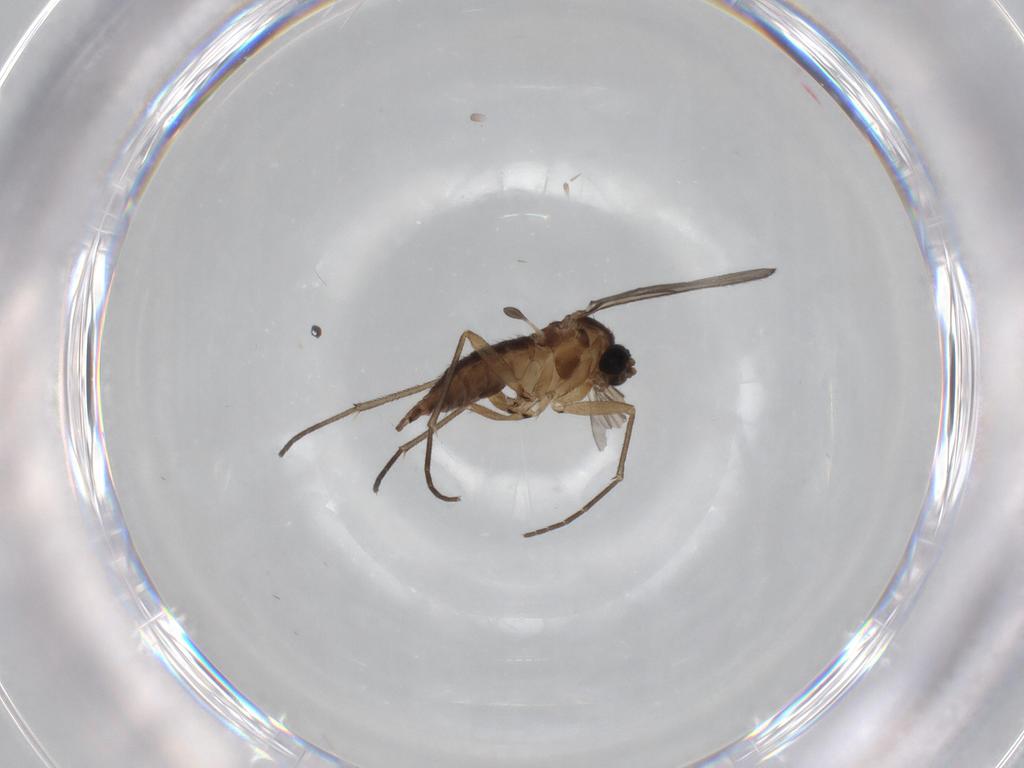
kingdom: Animalia
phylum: Arthropoda
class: Insecta
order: Diptera
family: Sciaridae
